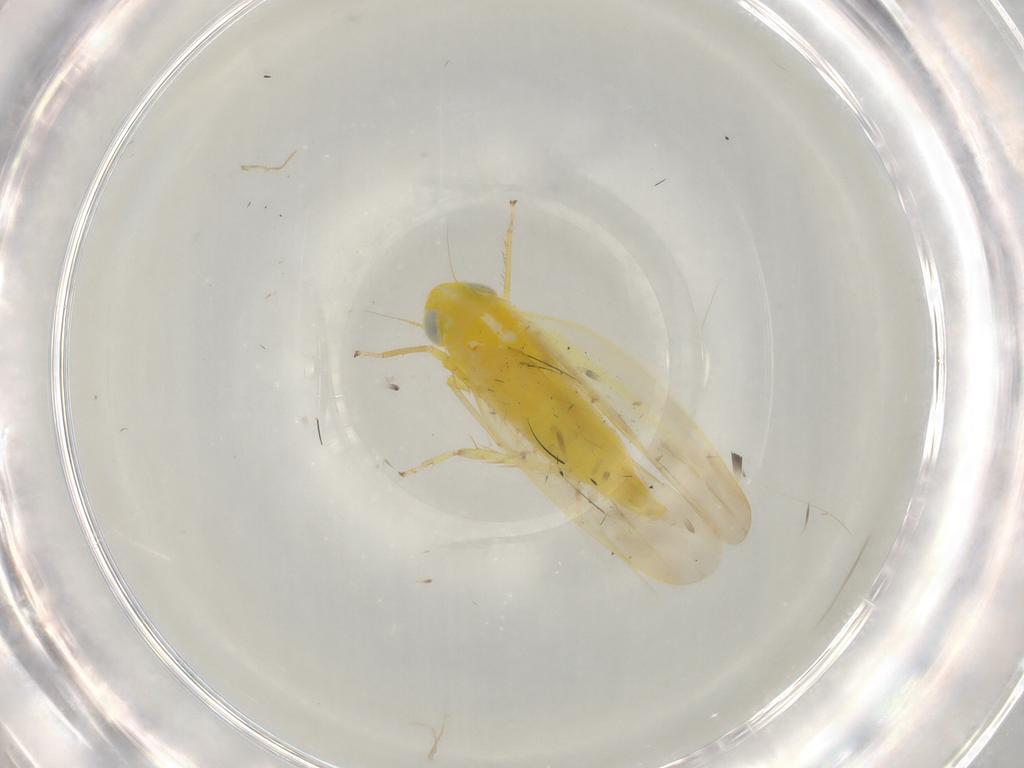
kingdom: Animalia
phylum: Arthropoda
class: Insecta
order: Hemiptera
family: Cicadellidae
